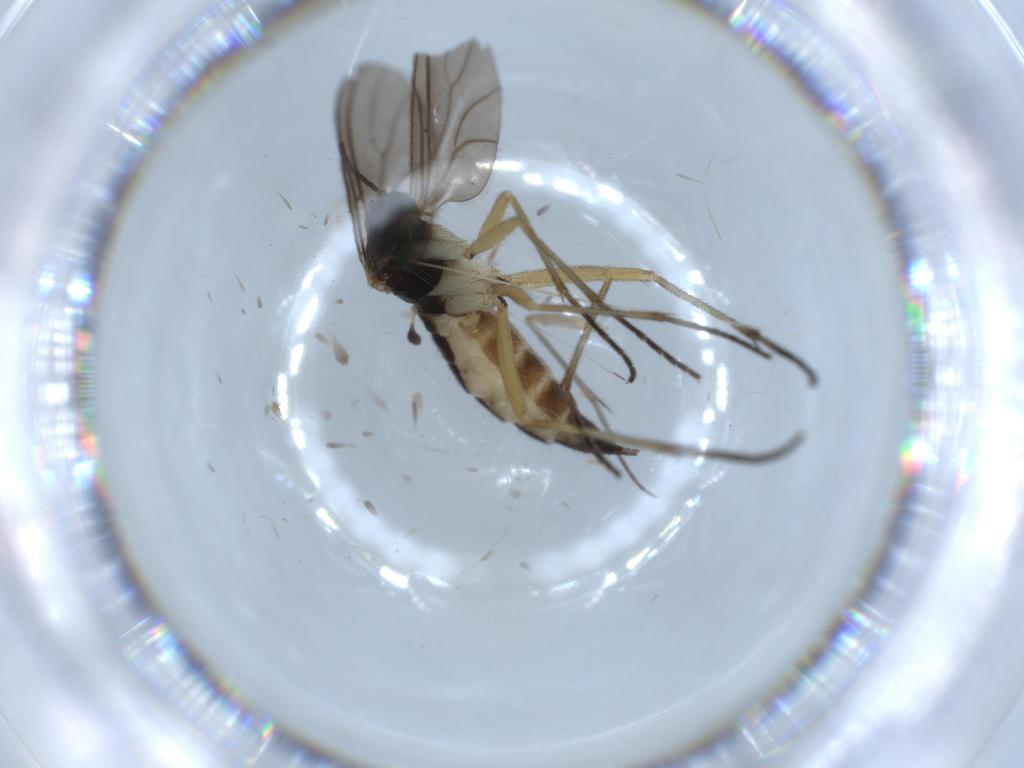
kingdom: Animalia
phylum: Arthropoda
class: Insecta
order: Diptera
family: Sciaridae
